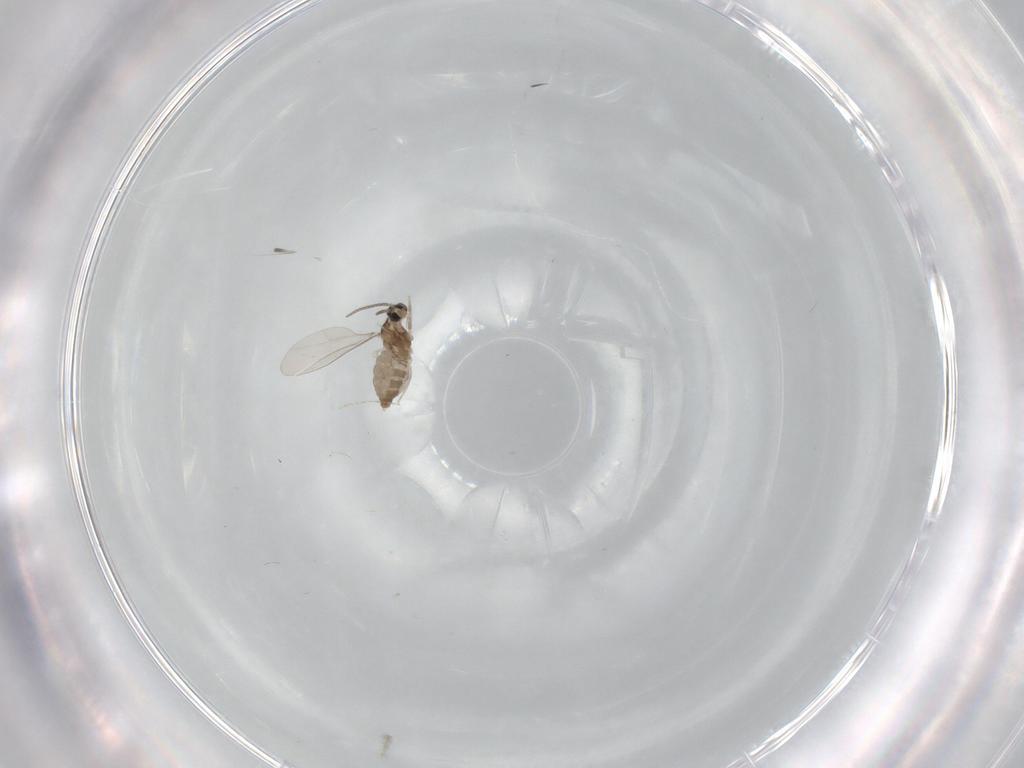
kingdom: Animalia
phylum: Arthropoda
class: Insecta
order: Diptera
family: Cecidomyiidae
